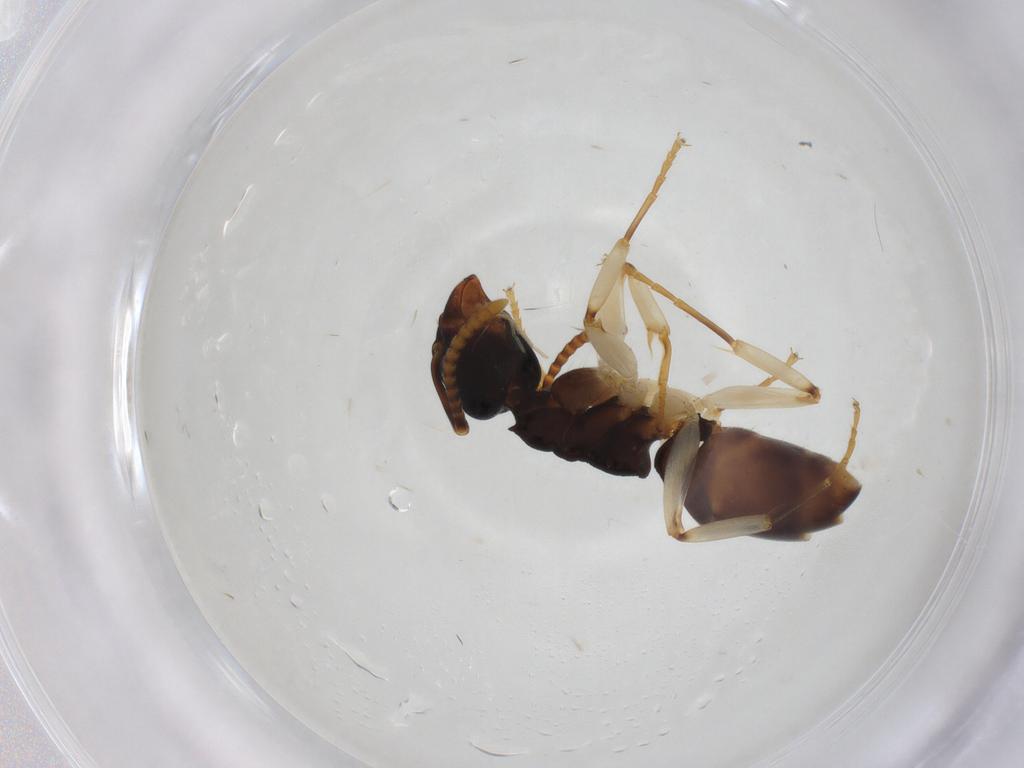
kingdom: Animalia
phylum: Arthropoda
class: Insecta
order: Hymenoptera
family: Formicidae
